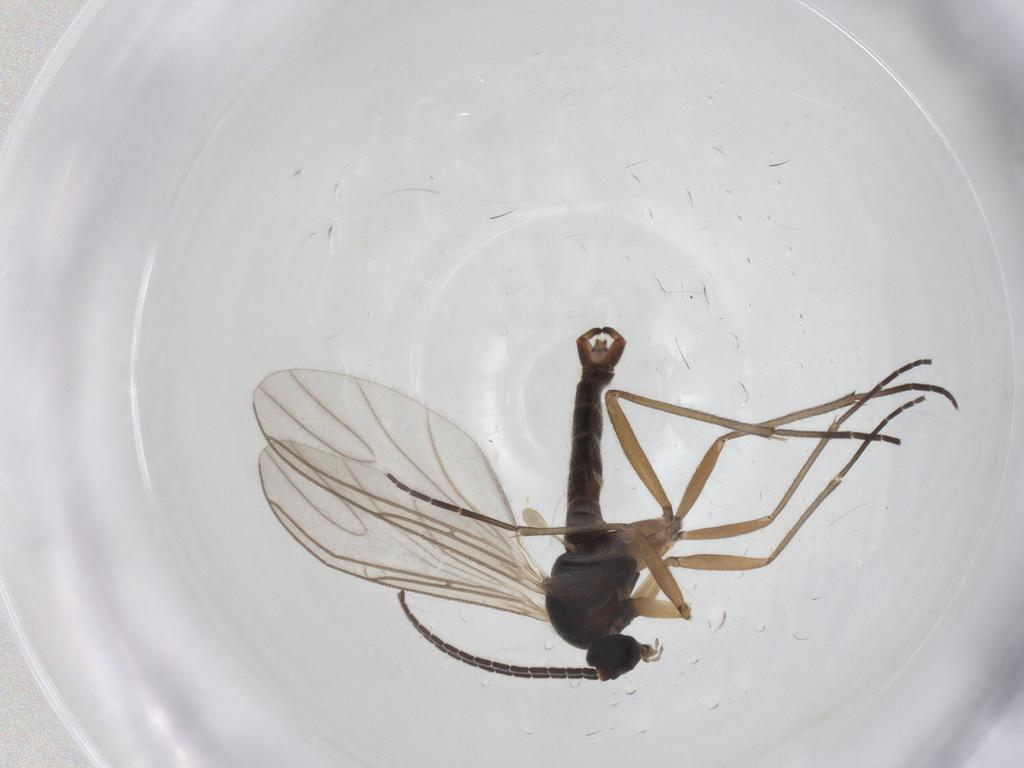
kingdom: Animalia
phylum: Arthropoda
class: Insecta
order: Diptera
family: Sciaridae
